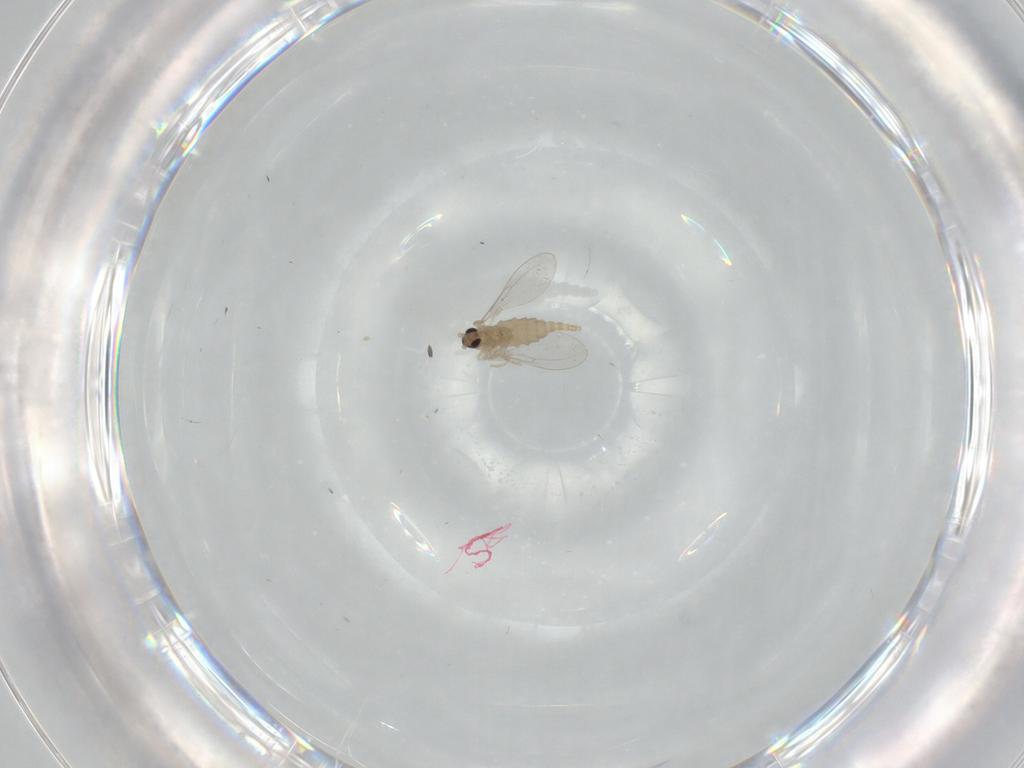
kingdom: Animalia
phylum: Arthropoda
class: Insecta
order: Diptera
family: Cecidomyiidae
